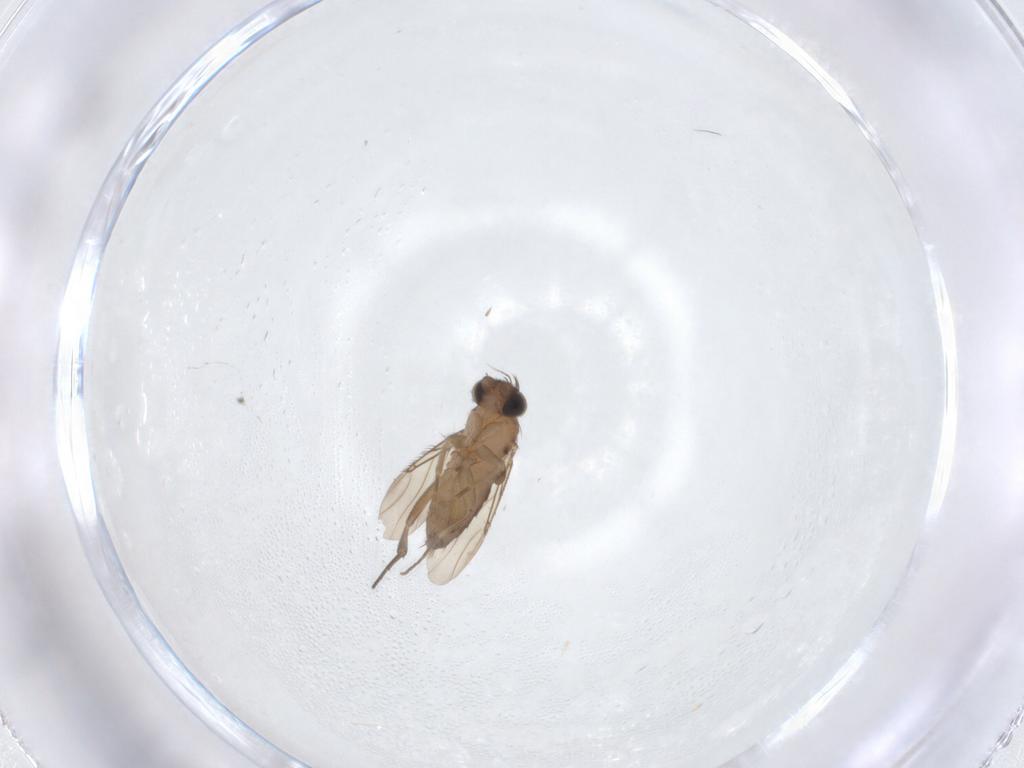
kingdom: Animalia
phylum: Arthropoda
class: Insecta
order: Diptera
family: Phoridae
